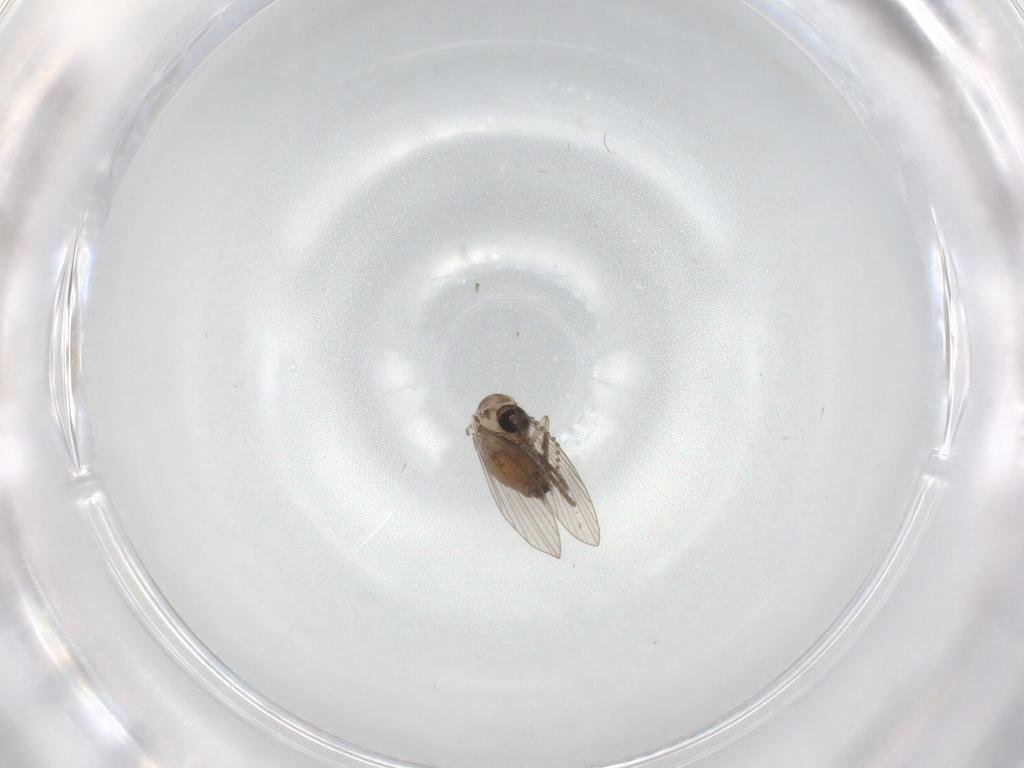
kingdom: Animalia
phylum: Arthropoda
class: Insecta
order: Diptera
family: Psychodidae
